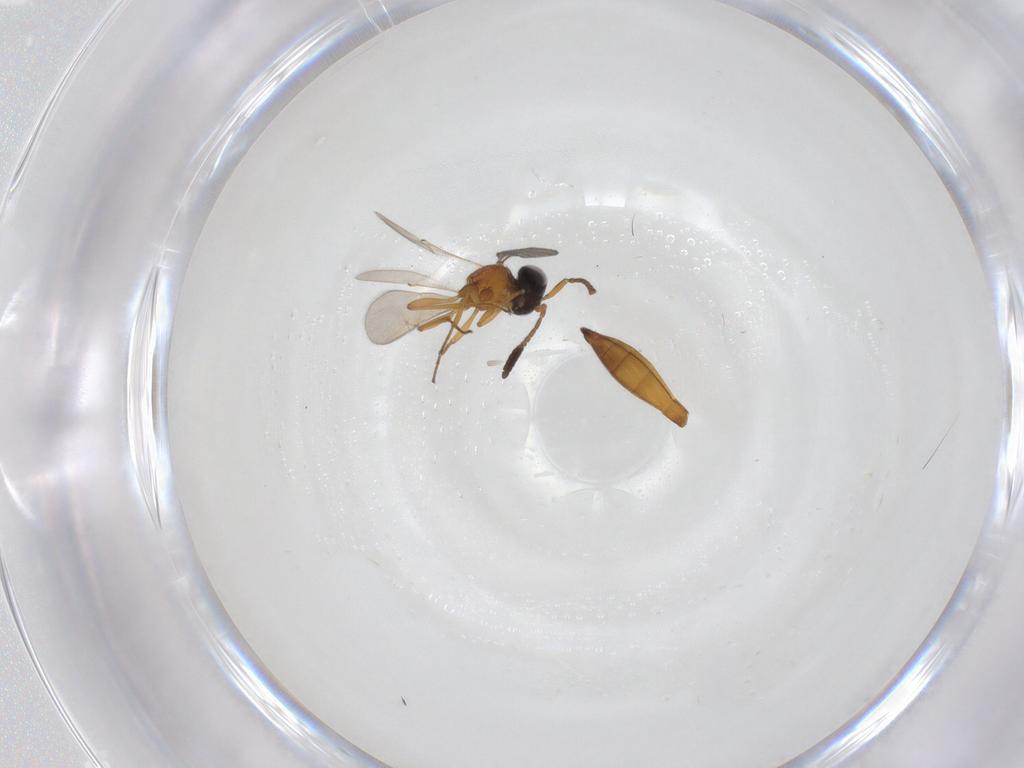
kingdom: Animalia
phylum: Arthropoda
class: Insecta
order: Hymenoptera
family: Scelionidae
